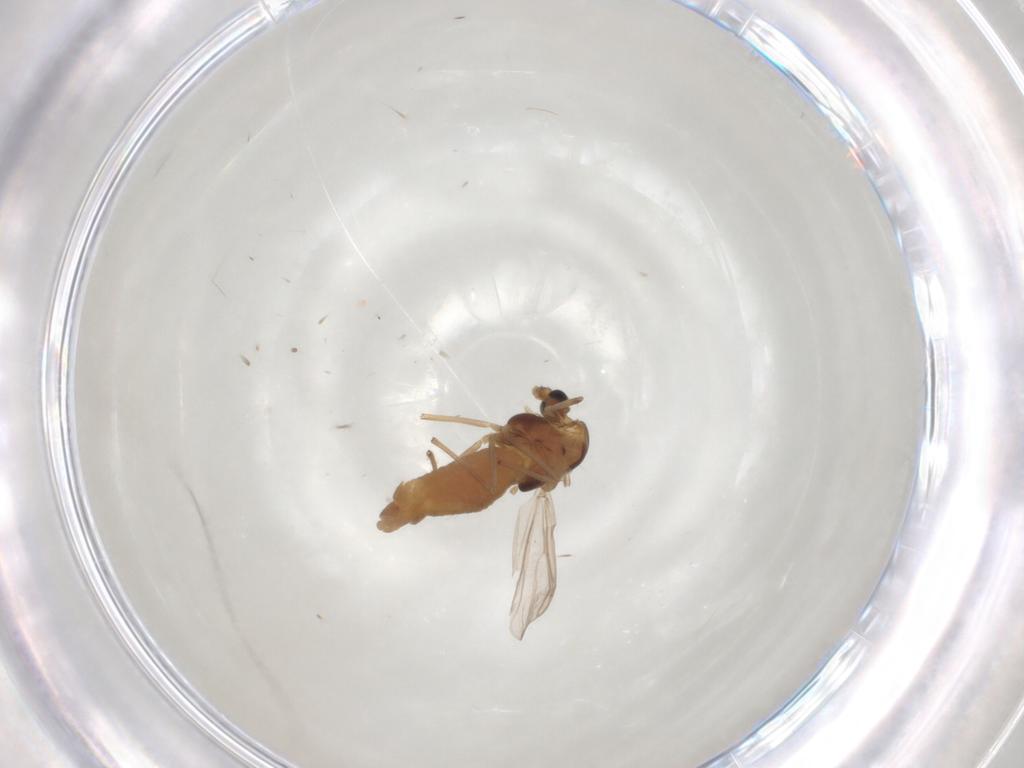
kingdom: Animalia
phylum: Arthropoda
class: Insecta
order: Diptera
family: Chironomidae
